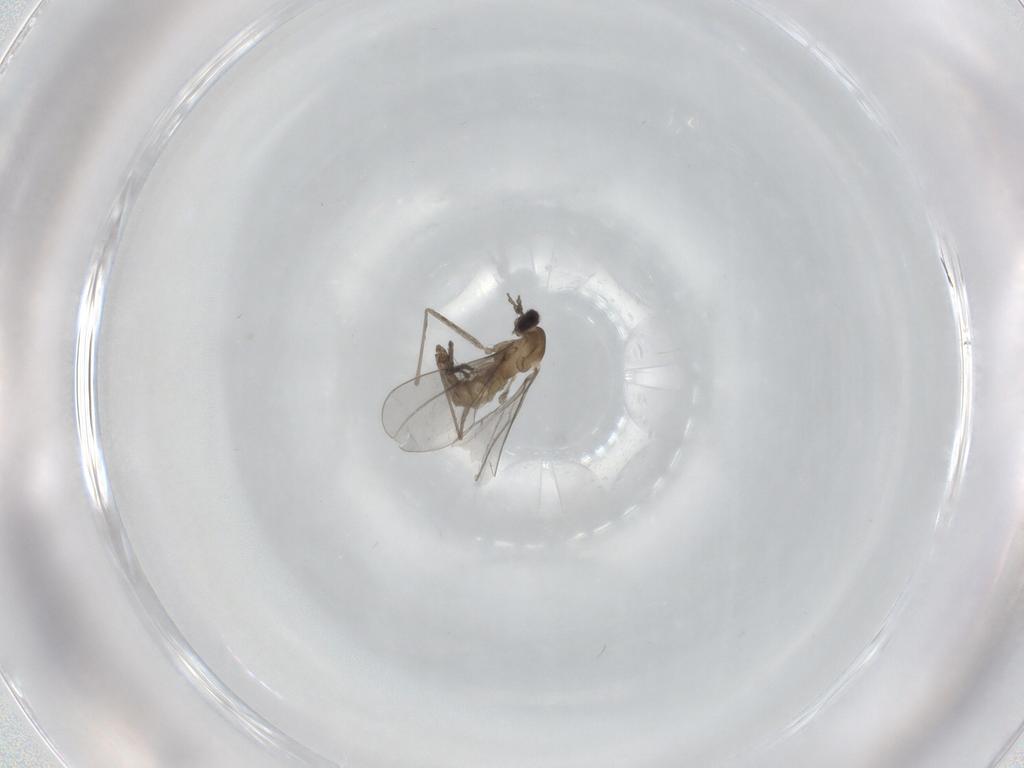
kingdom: Animalia
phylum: Arthropoda
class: Insecta
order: Diptera
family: Cecidomyiidae
